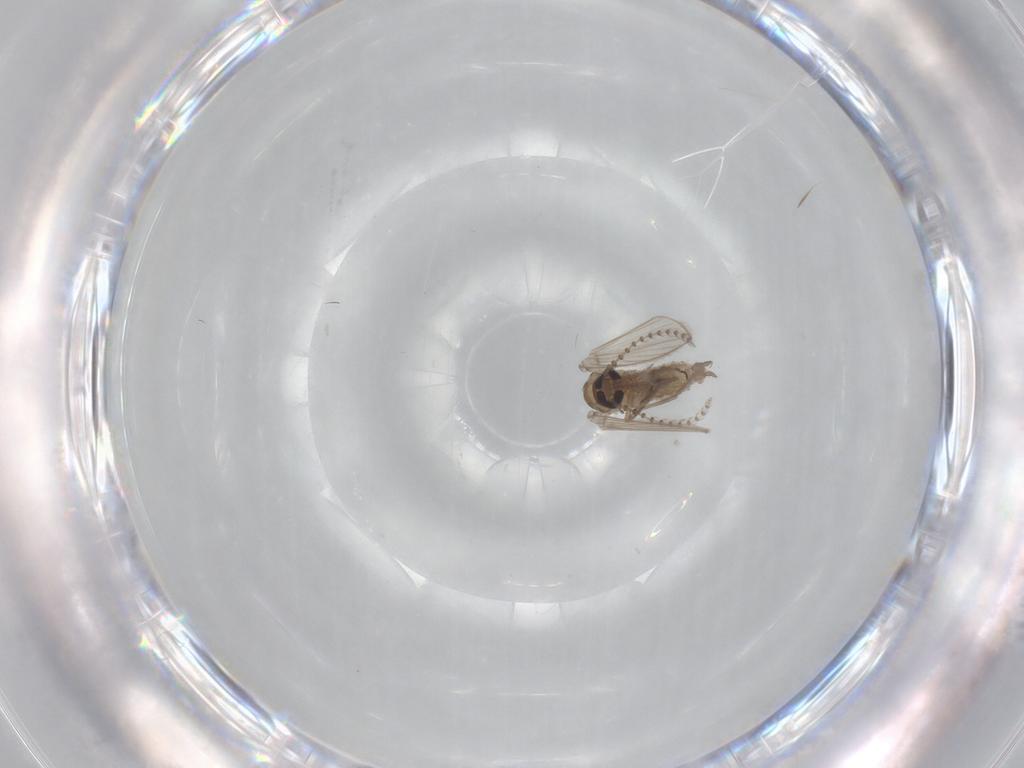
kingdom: Animalia
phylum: Arthropoda
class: Insecta
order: Diptera
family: Psychodidae
